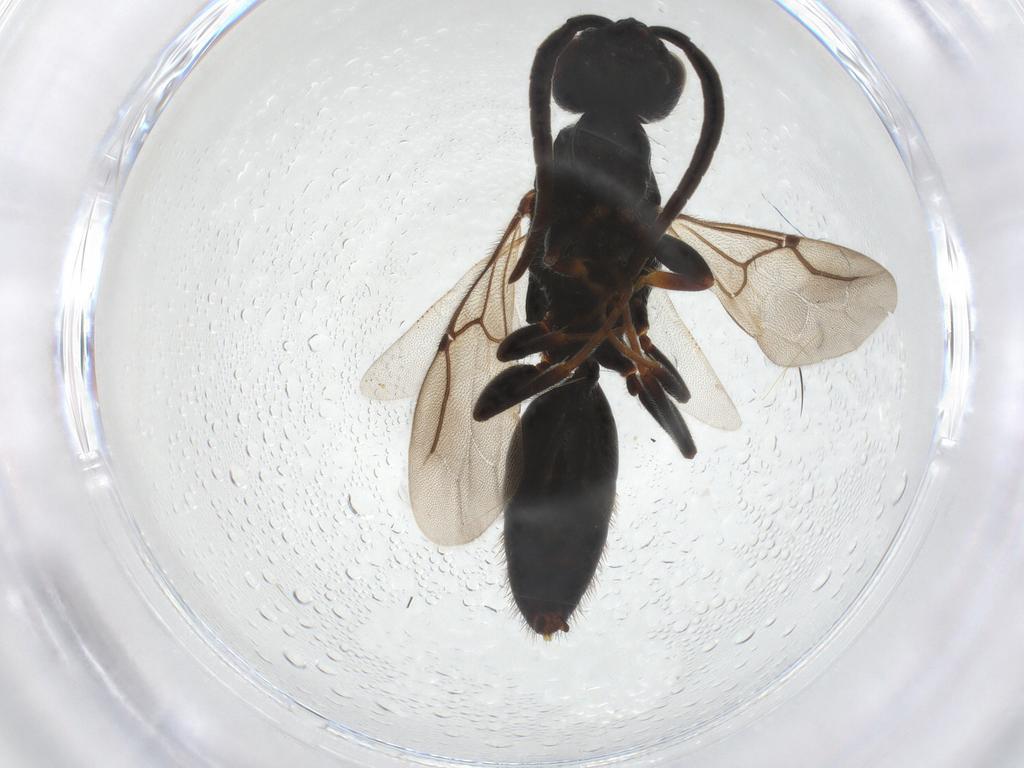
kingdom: Animalia
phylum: Arthropoda
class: Insecta
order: Hymenoptera
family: Bethylidae
